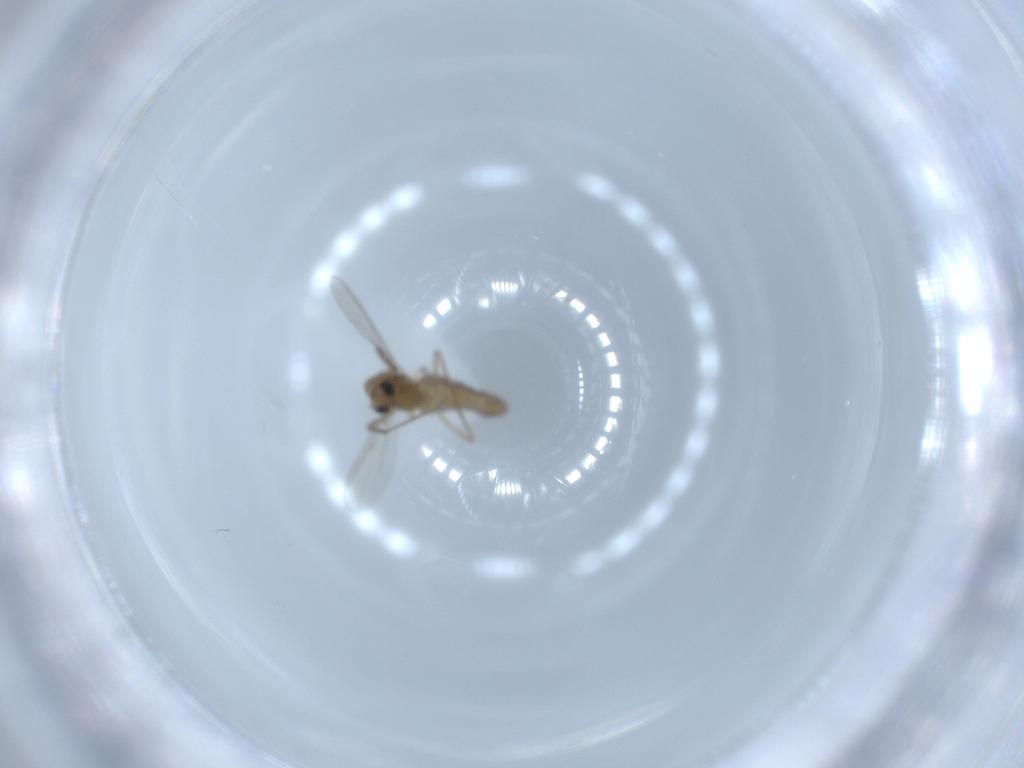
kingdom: Animalia
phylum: Arthropoda
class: Insecta
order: Diptera
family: Chironomidae
